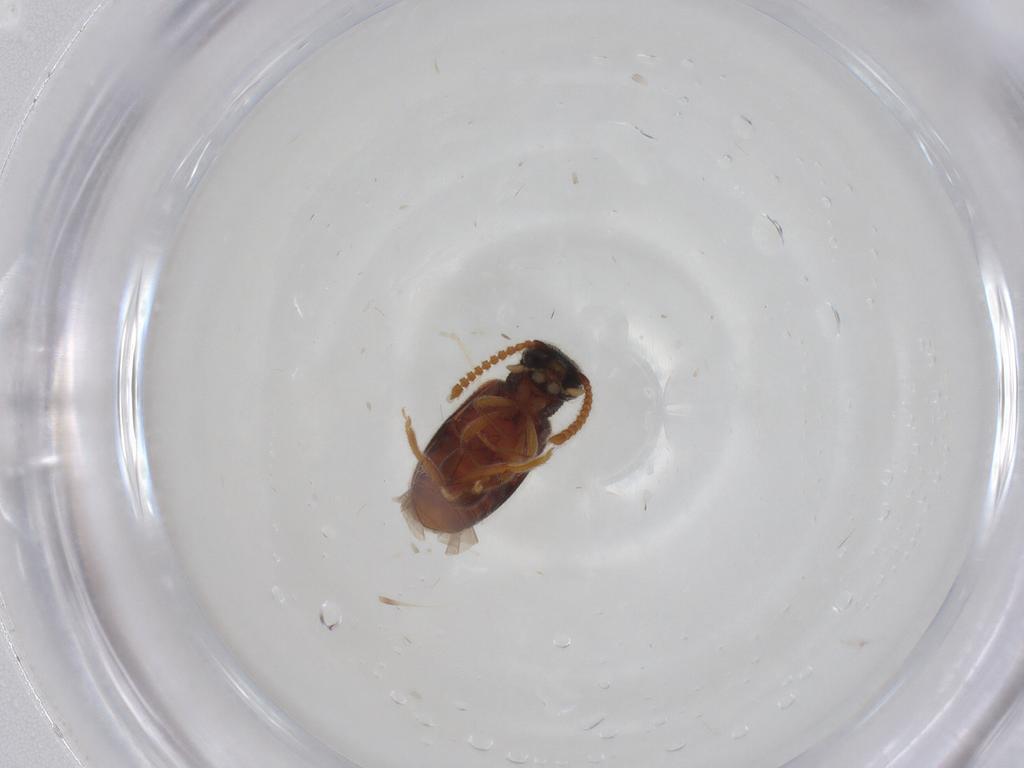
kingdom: Animalia
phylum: Arthropoda
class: Insecta
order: Coleoptera
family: Aderidae
